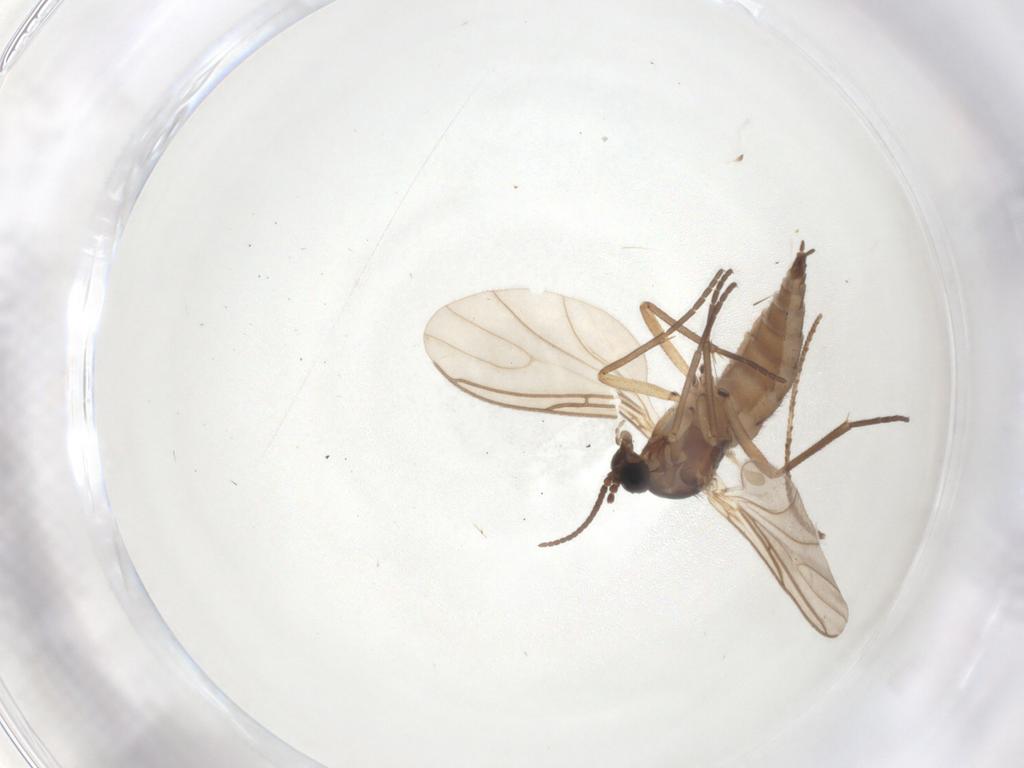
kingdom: Animalia
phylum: Arthropoda
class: Insecta
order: Diptera
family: Sciaridae
